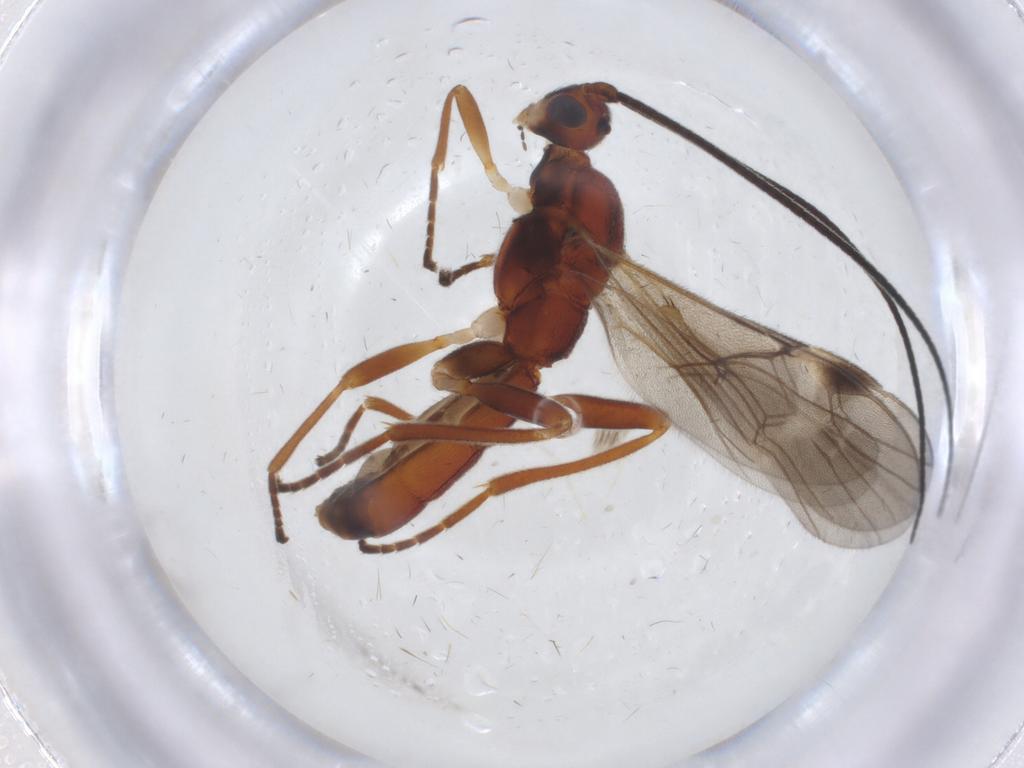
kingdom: Animalia
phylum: Arthropoda
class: Insecta
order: Hymenoptera
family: Braconidae
